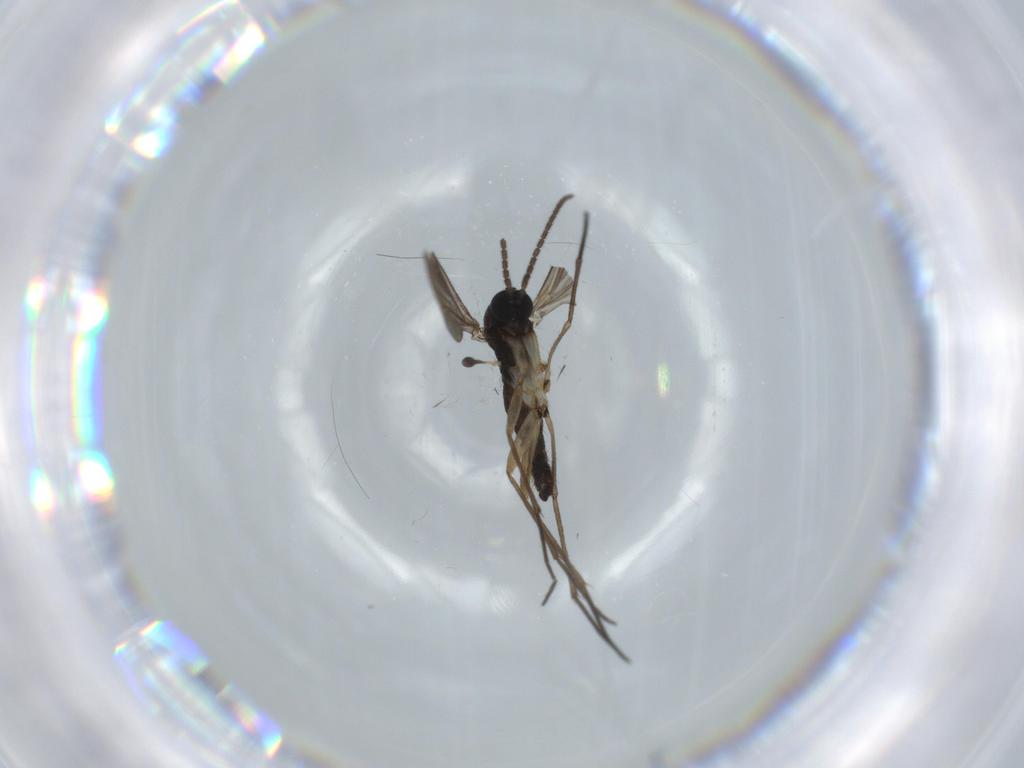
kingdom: Animalia
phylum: Arthropoda
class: Insecta
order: Diptera
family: Sciaridae
